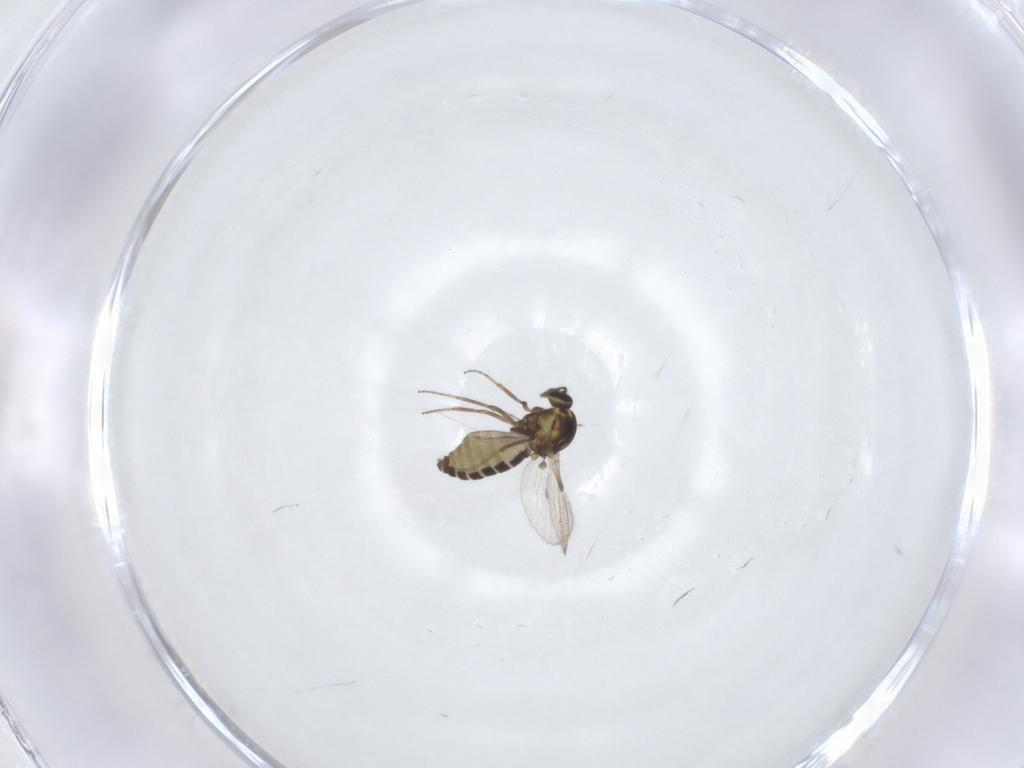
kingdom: Animalia
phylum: Arthropoda
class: Insecta
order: Diptera
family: Ceratopogonidae
